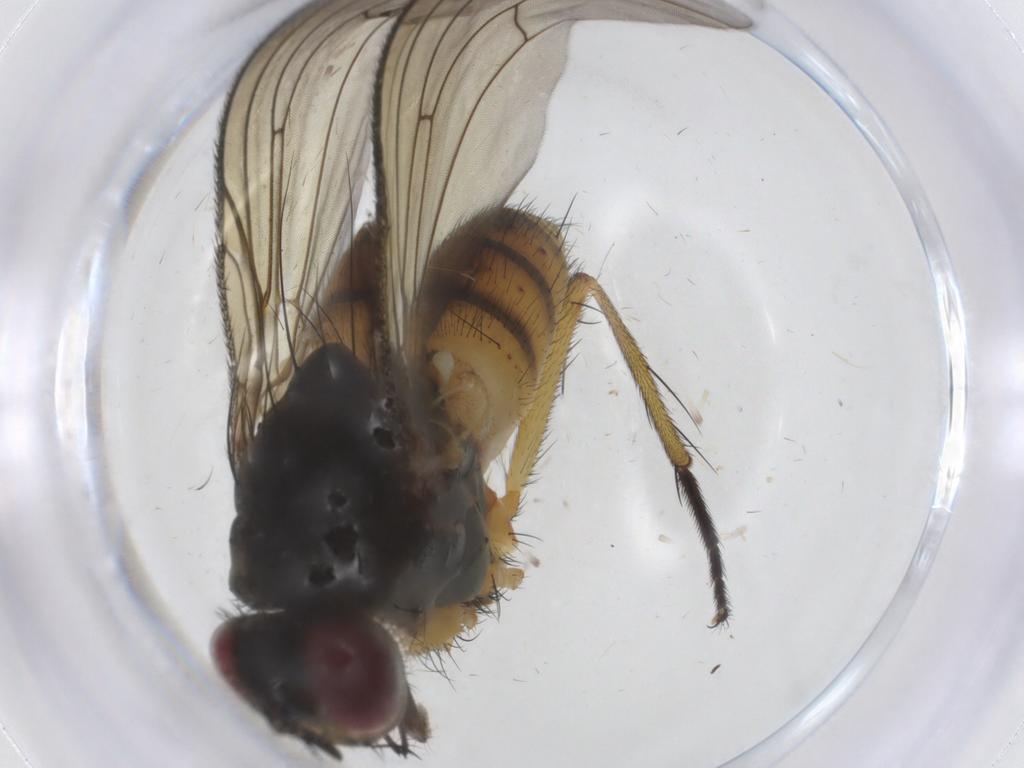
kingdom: Animalia
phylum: Arthropoda
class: Insecta
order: Diptera
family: Muscidae
